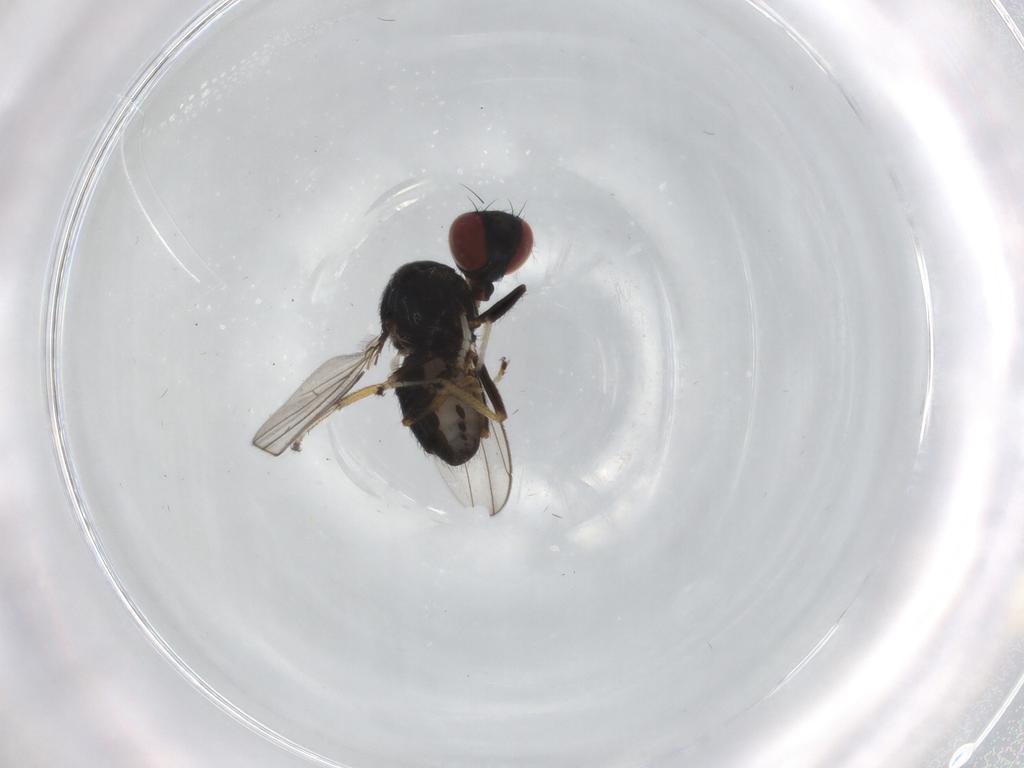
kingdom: Animalia
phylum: Arthropoda
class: Insecta
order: Diptera
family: Ephydridae
